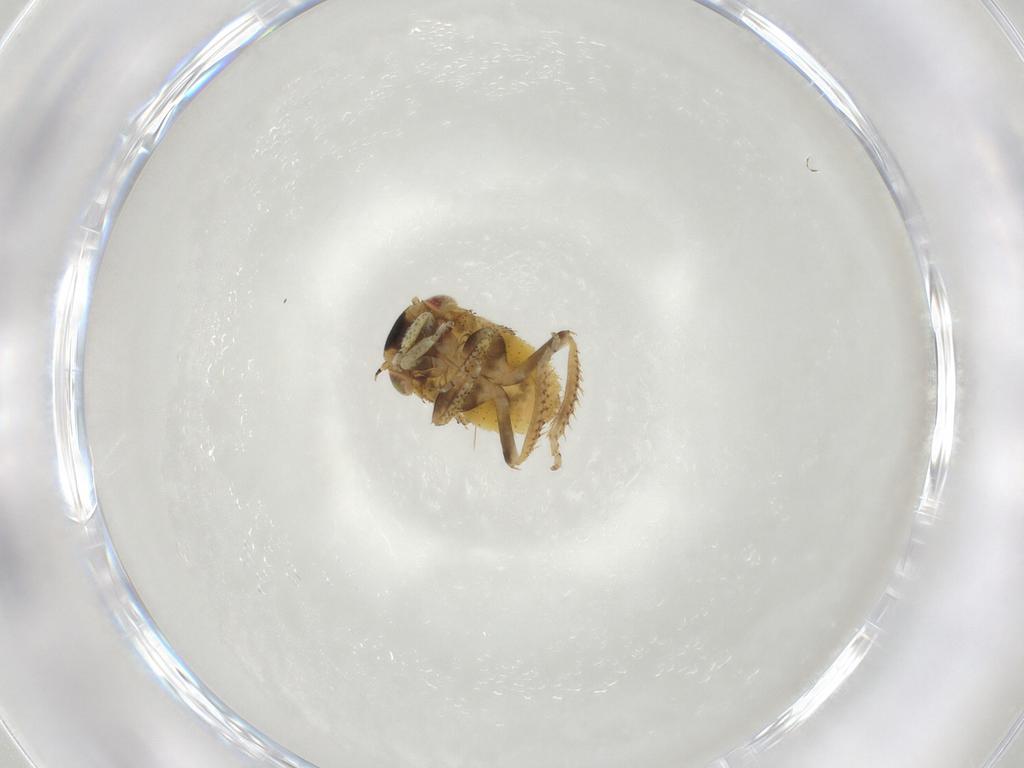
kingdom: Animalia
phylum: Arthropoda
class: Insecta
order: Hemiptera
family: Cicadellidae
